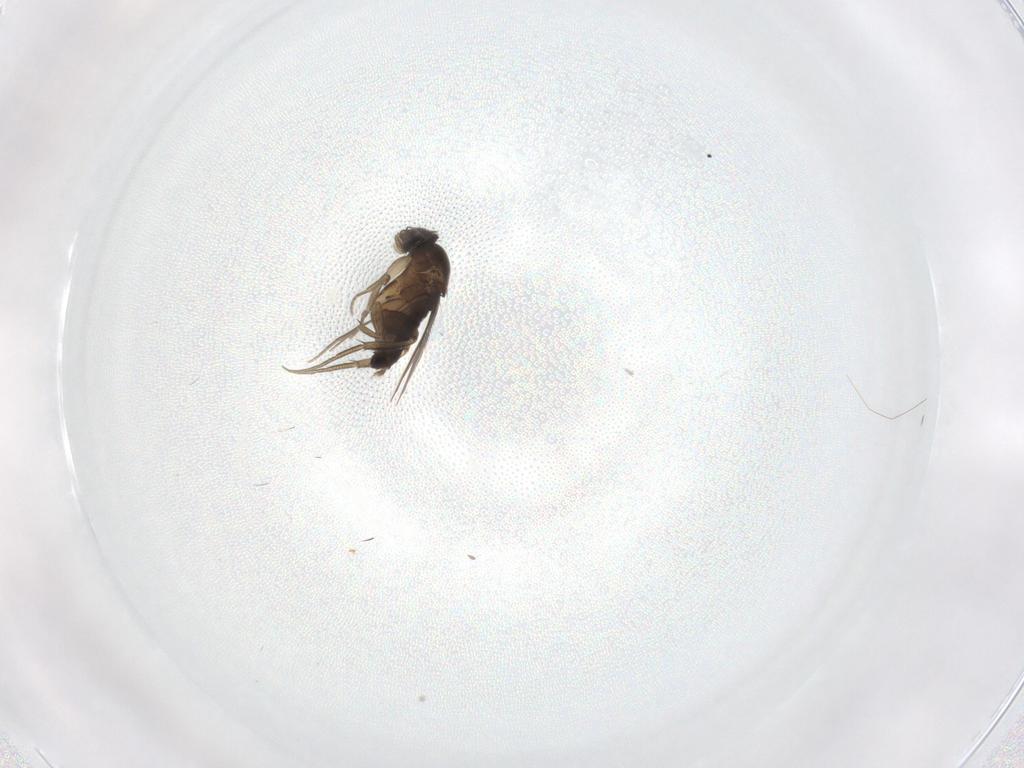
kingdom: Animalia
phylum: Arthropoda
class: Insecta
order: Diptera
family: Phoridae
